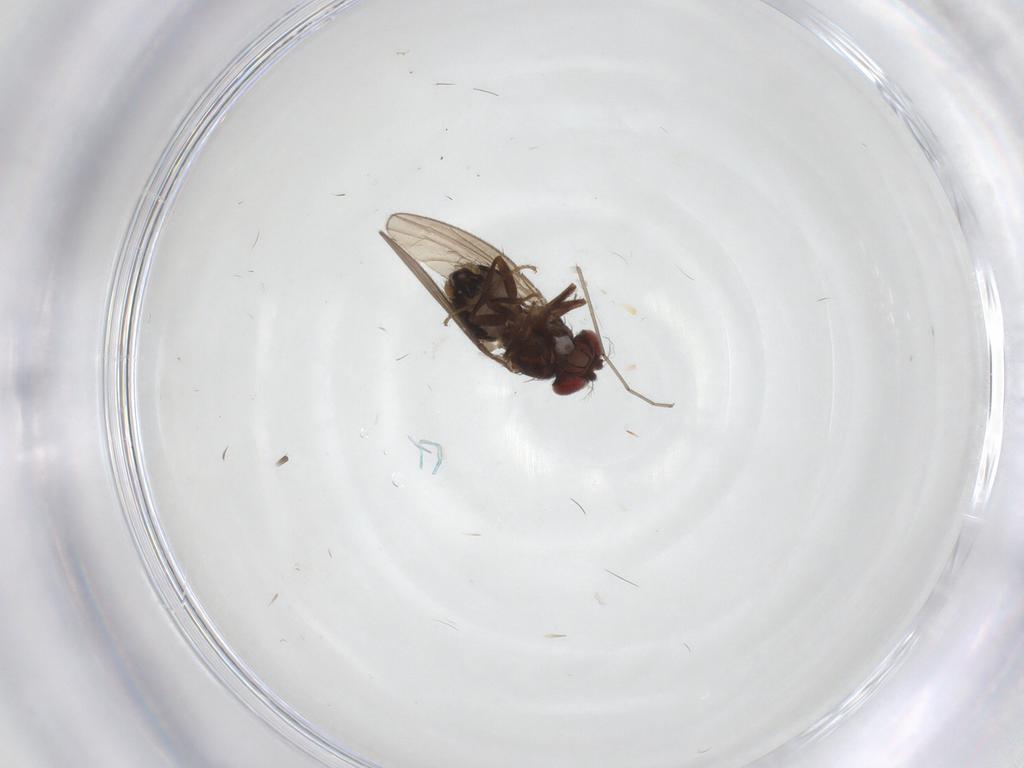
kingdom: Animalia
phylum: Arthropoda
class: Insecta
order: Diptera
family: Drosophilidae
